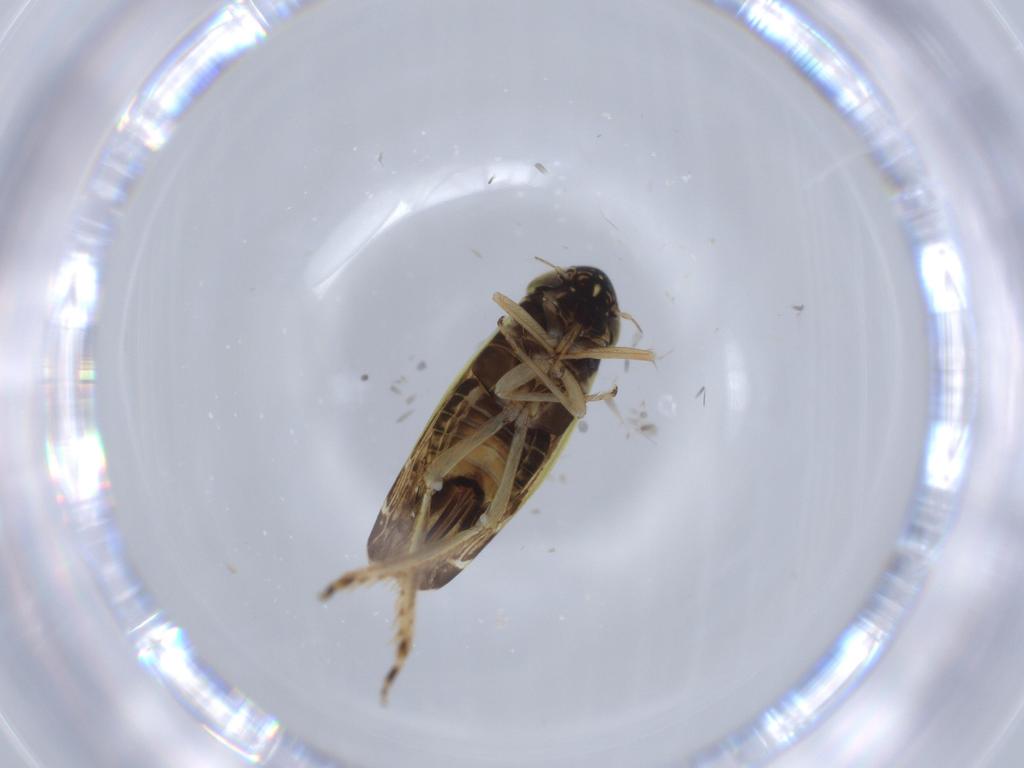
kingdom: Animalia
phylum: Arthropoda
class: Insecta
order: Hemiptera
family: Cicadellidae
